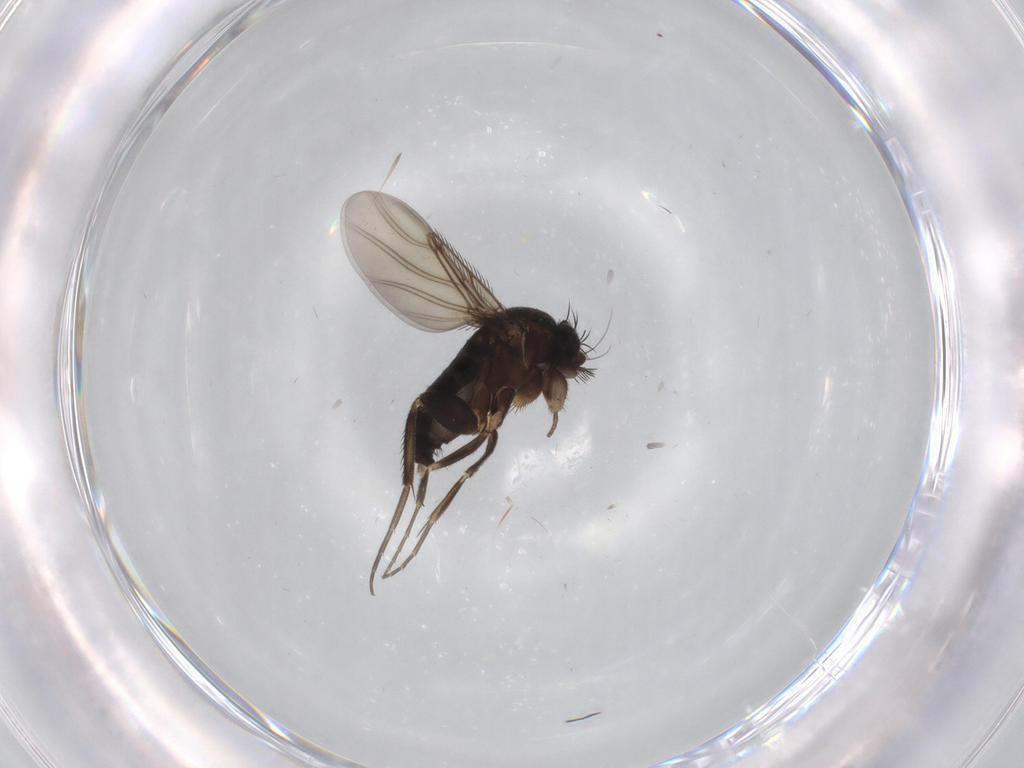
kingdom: Animalia
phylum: Arthropoda
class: Insecta
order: Diptera
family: Phoridae
